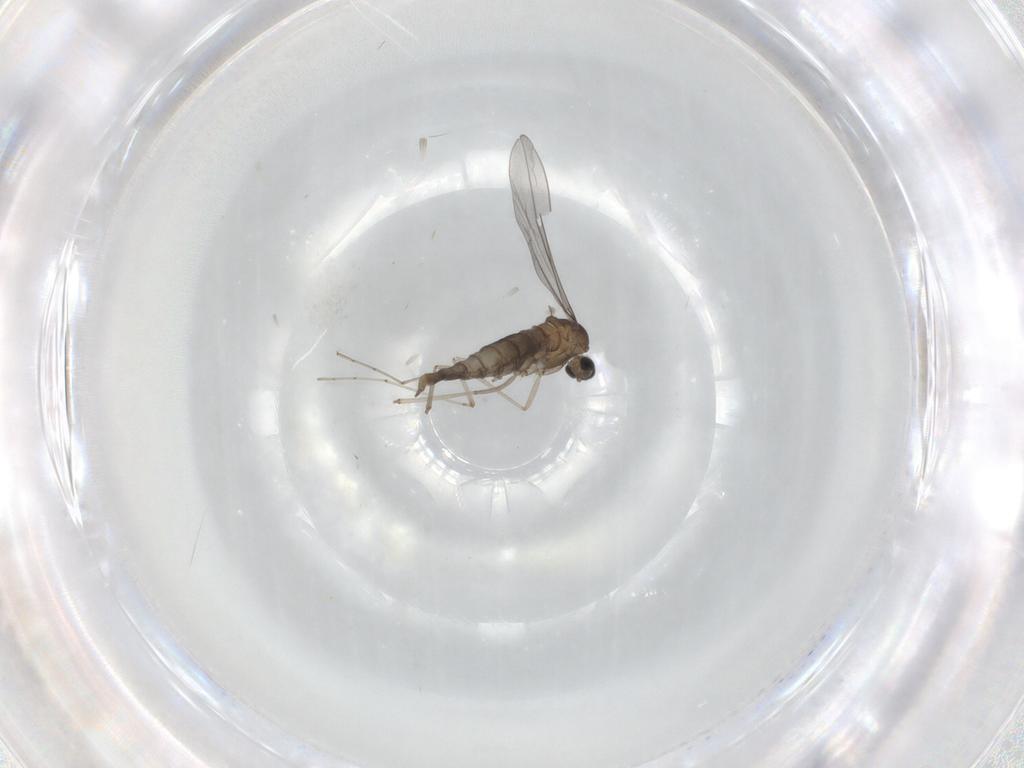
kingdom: Animalia
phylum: Arthropoda
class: Insecta
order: Diptera
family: Cecidomyiidae
